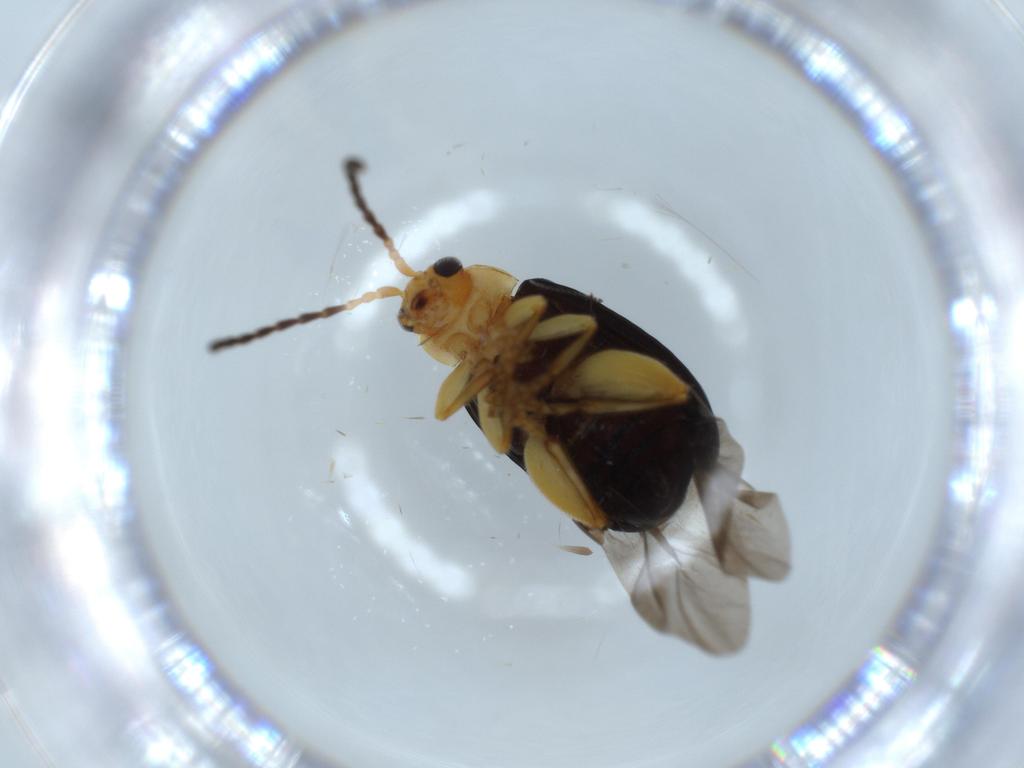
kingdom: Animalia
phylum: Arthropoda
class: Insecta
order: Coleoptera
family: Chrysomelidae
